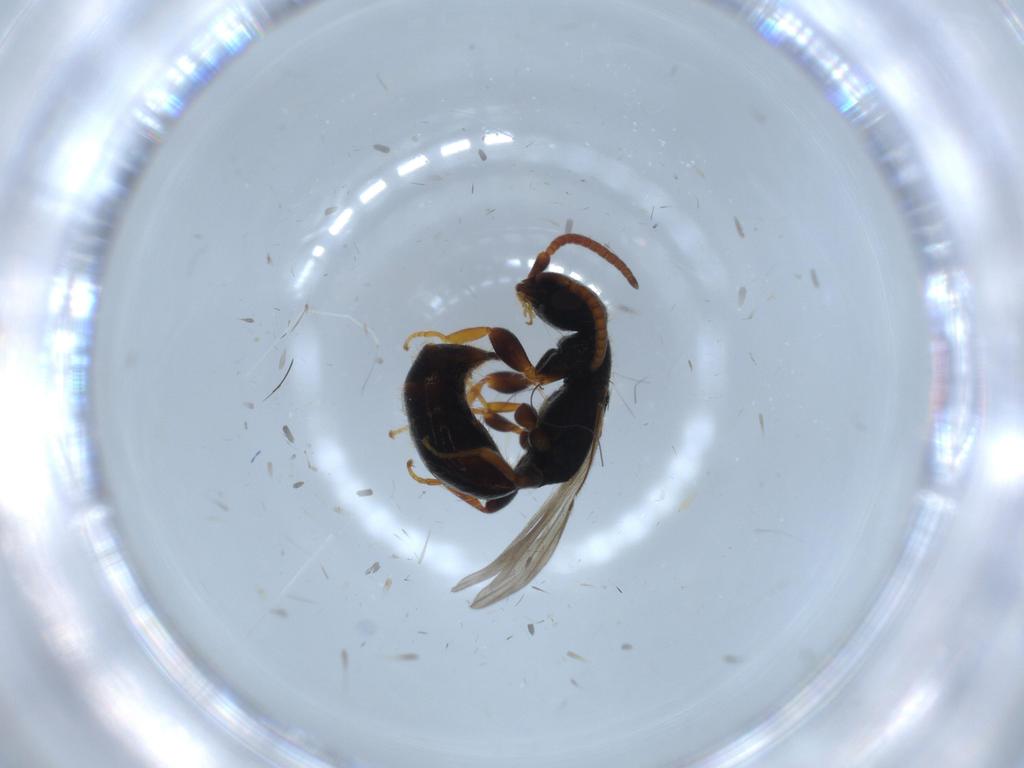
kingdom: Animalia
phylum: Arthropoda
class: Insecta
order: Hymenoptera
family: Bethylidae
